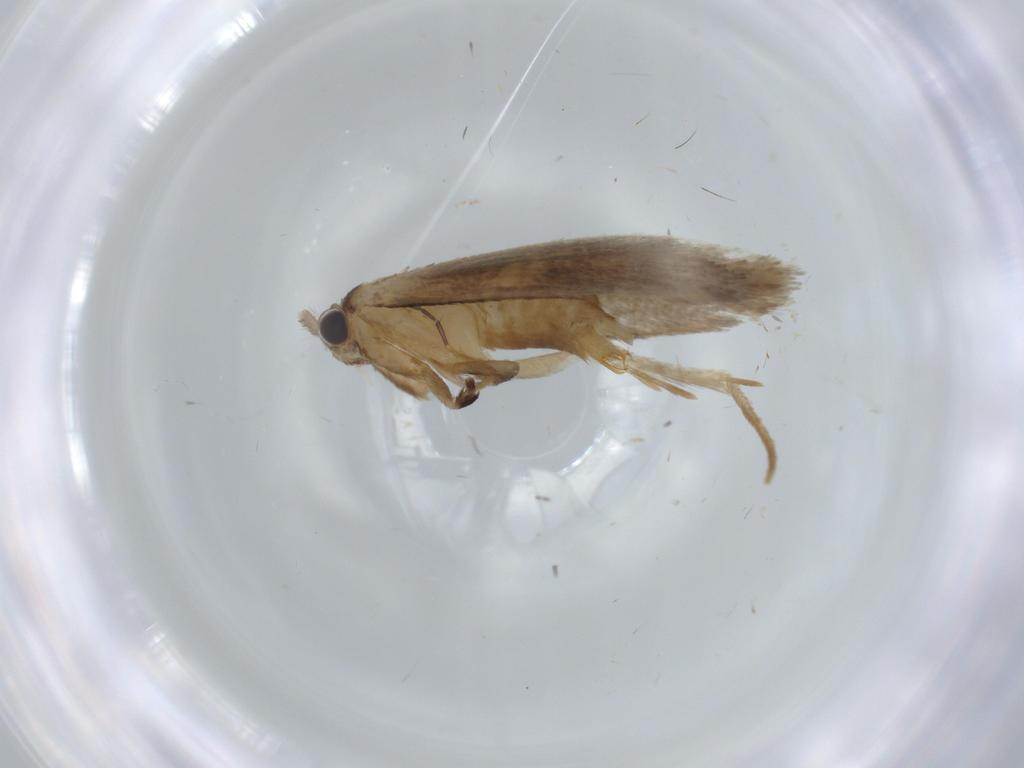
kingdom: Animalia
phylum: Arthropoda
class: Insecta
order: Lepidoptera
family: Tineidae
